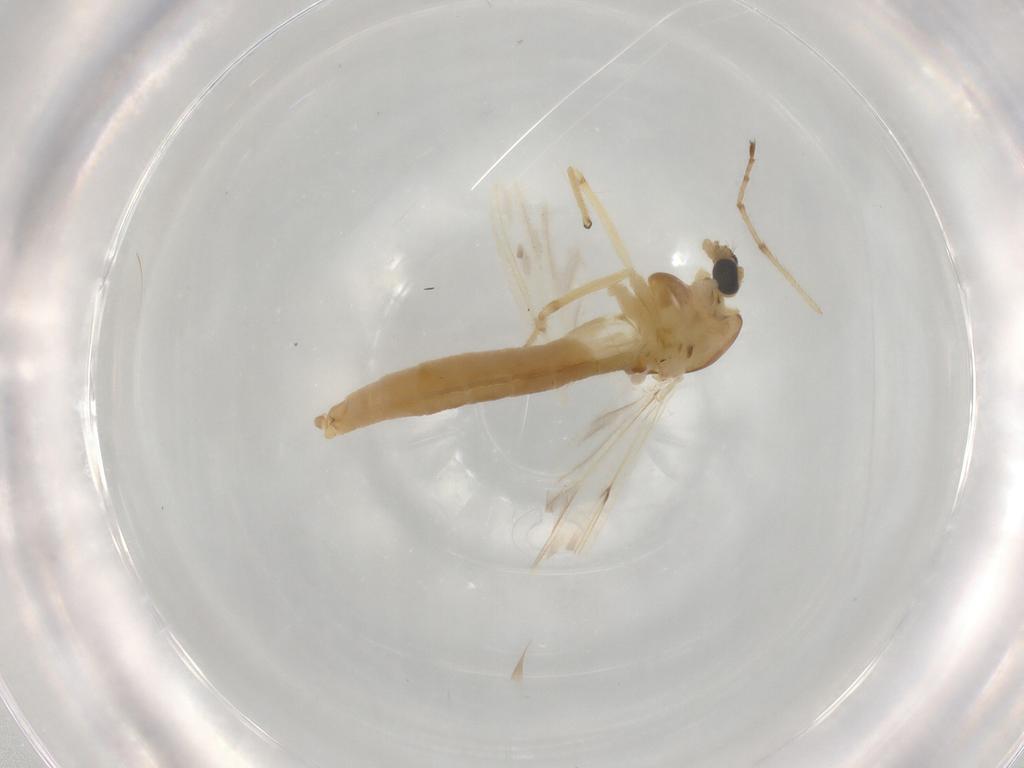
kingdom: Animalia
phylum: Arthropoda
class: Insecta
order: Diptera
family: Chironomidae
